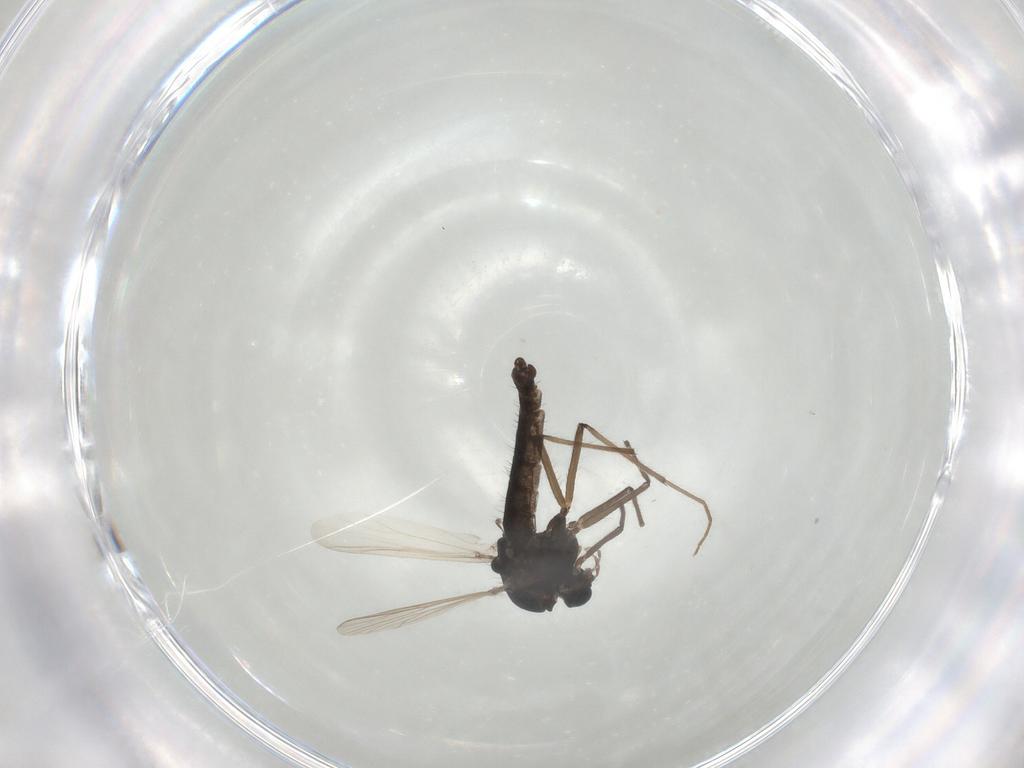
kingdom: Animalia
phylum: Arthropoda
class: Insecta
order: Diptera
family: Chironomidae
